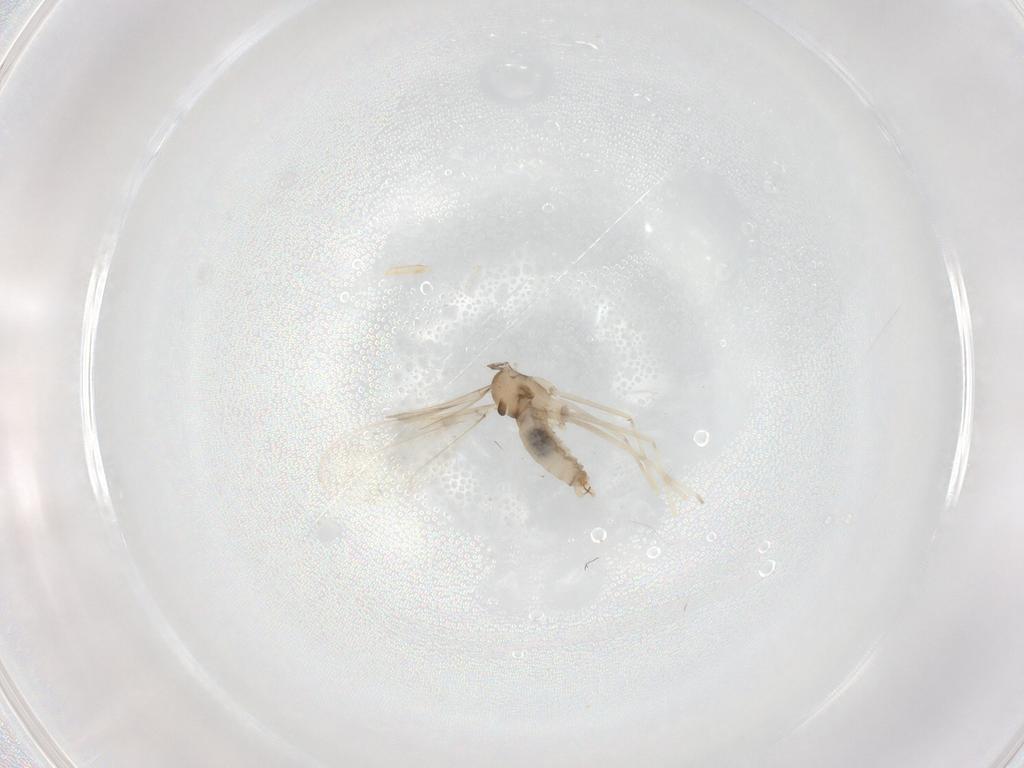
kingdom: Animalia
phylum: Arthropoda
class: Insecta
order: Diptera
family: Cecidomyiidae
